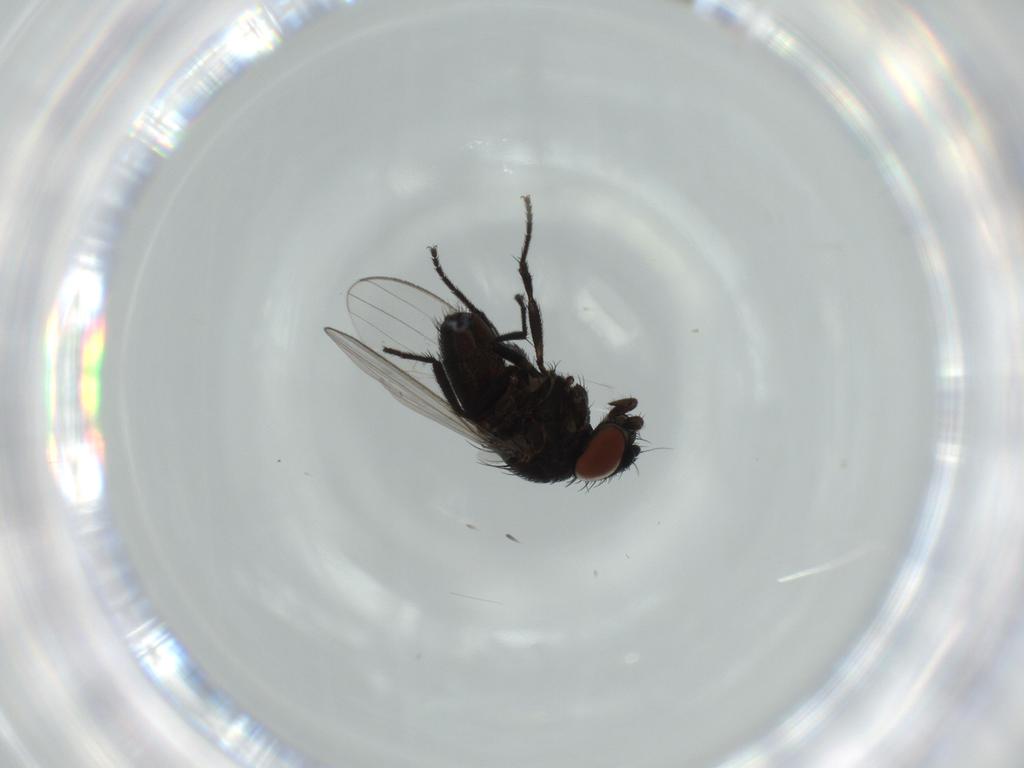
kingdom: Animalia
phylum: Arthropoda
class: Insecta
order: Diptera
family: Milichiidae
